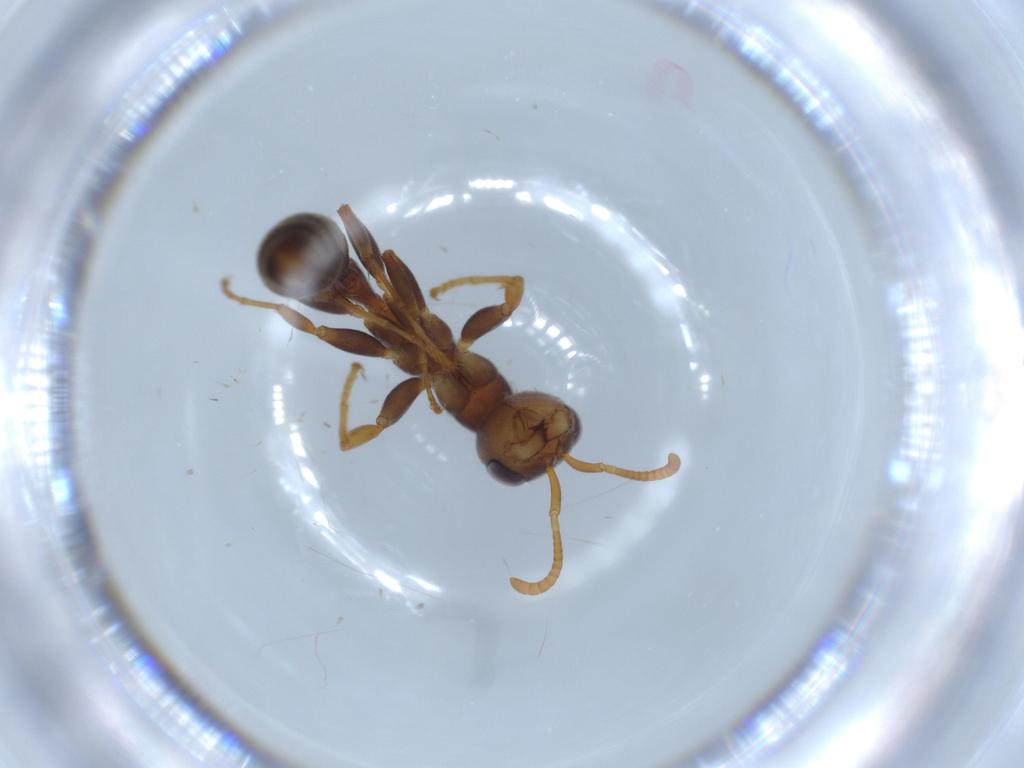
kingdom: Animalia
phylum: Arthropoda
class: Insecta
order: Hymenoptera
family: Formicidae
